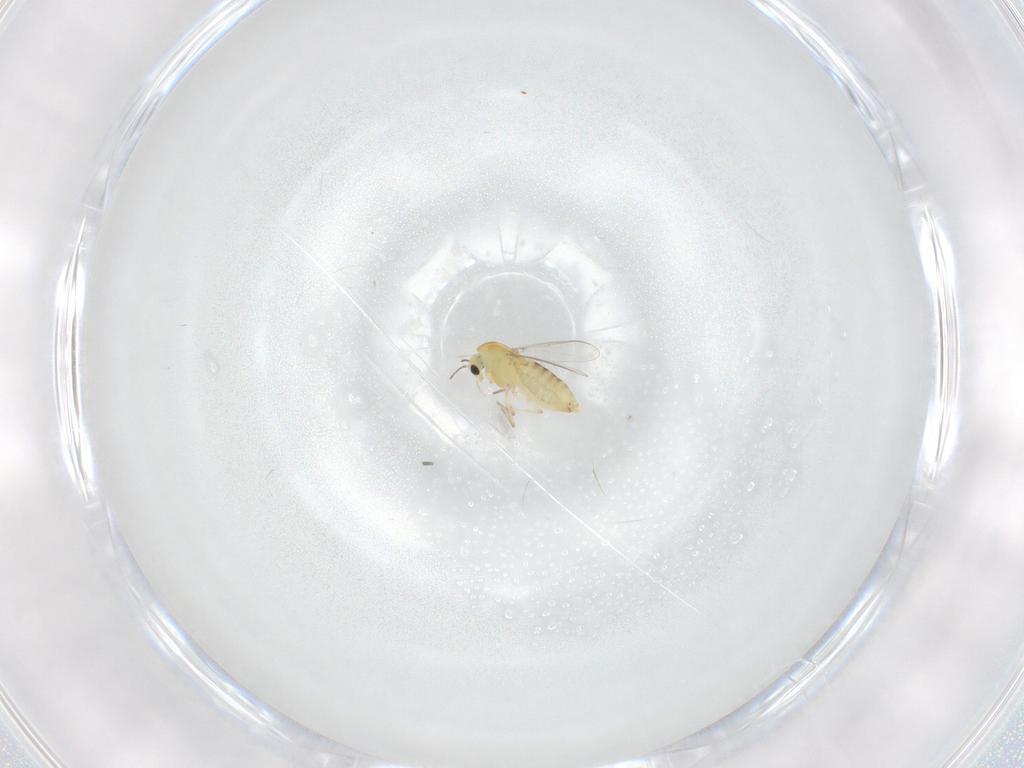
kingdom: Animalia
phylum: Arthropoda
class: Insecta
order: Diptera
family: Chironomidae
